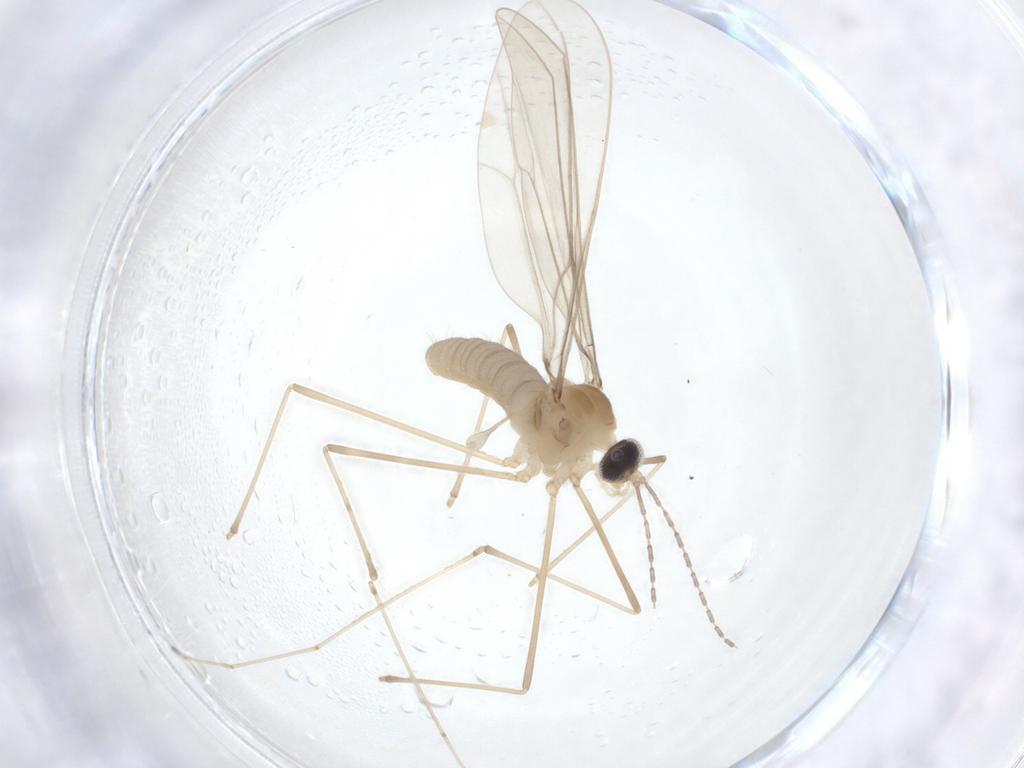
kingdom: Animalia
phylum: Arthropoda
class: Insecta
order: Diptera
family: Cecidomyiidae
